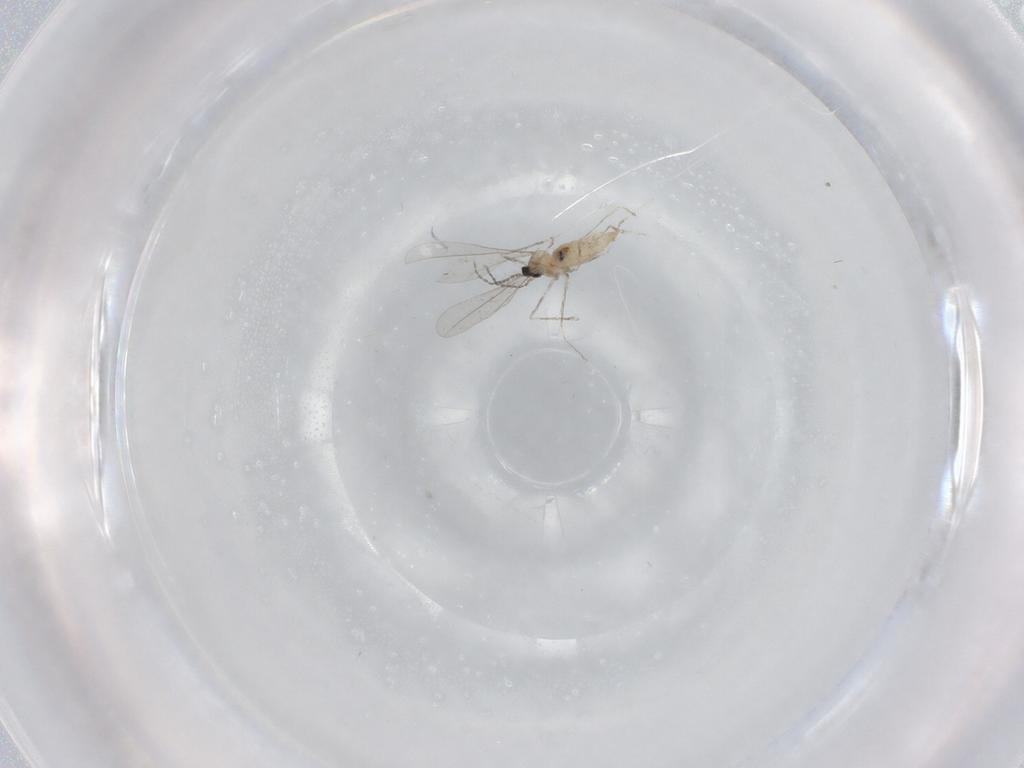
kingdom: Animalia
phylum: Arthropoda
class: Insecta
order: Diptera
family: Cecidomyiidae
